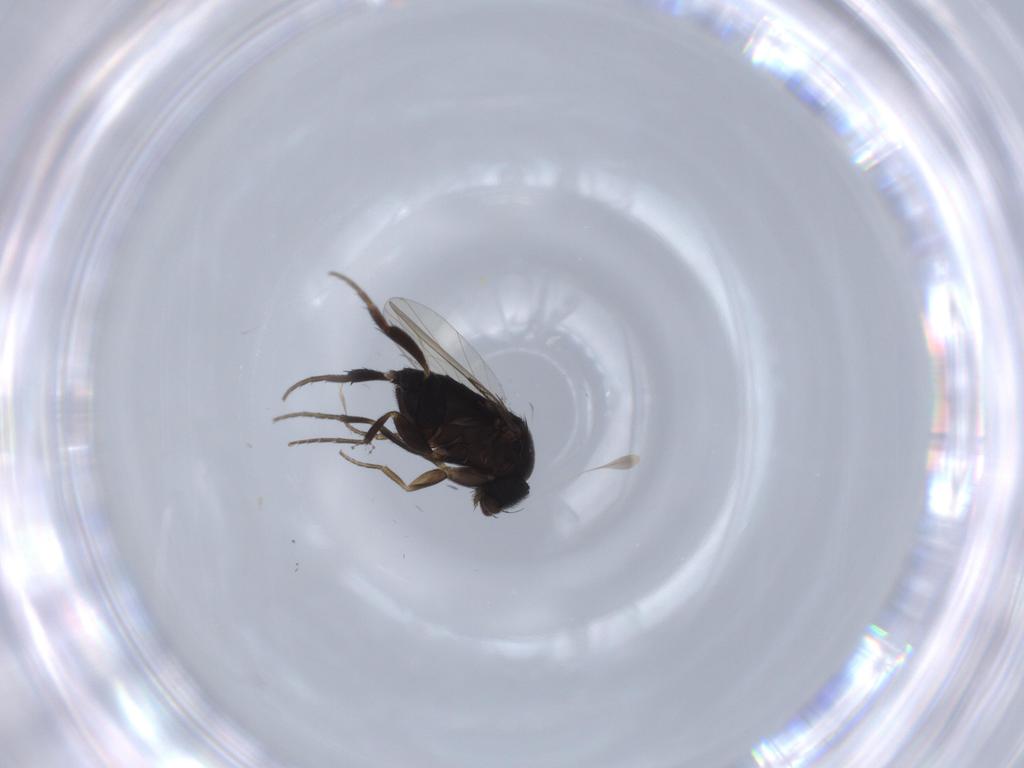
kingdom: Animalia
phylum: Arthropoda
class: Insecta
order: Diptera
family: Phoridae
